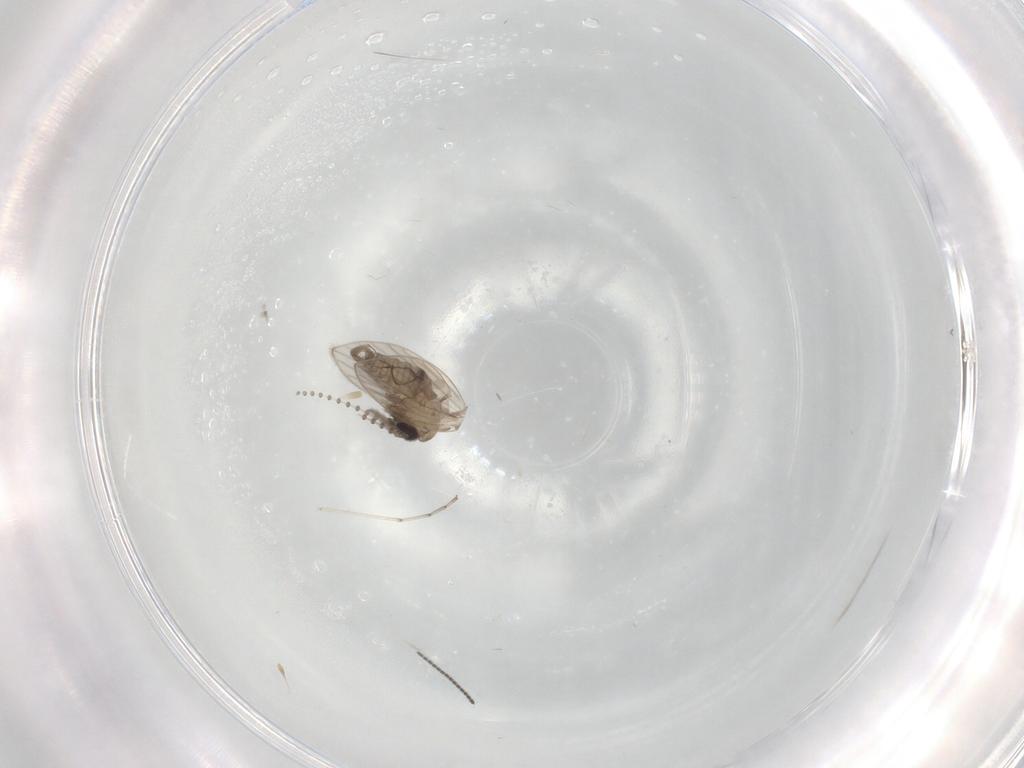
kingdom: Animalia
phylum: Arthropoda
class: Insecta
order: Diptera
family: Psychodidae
